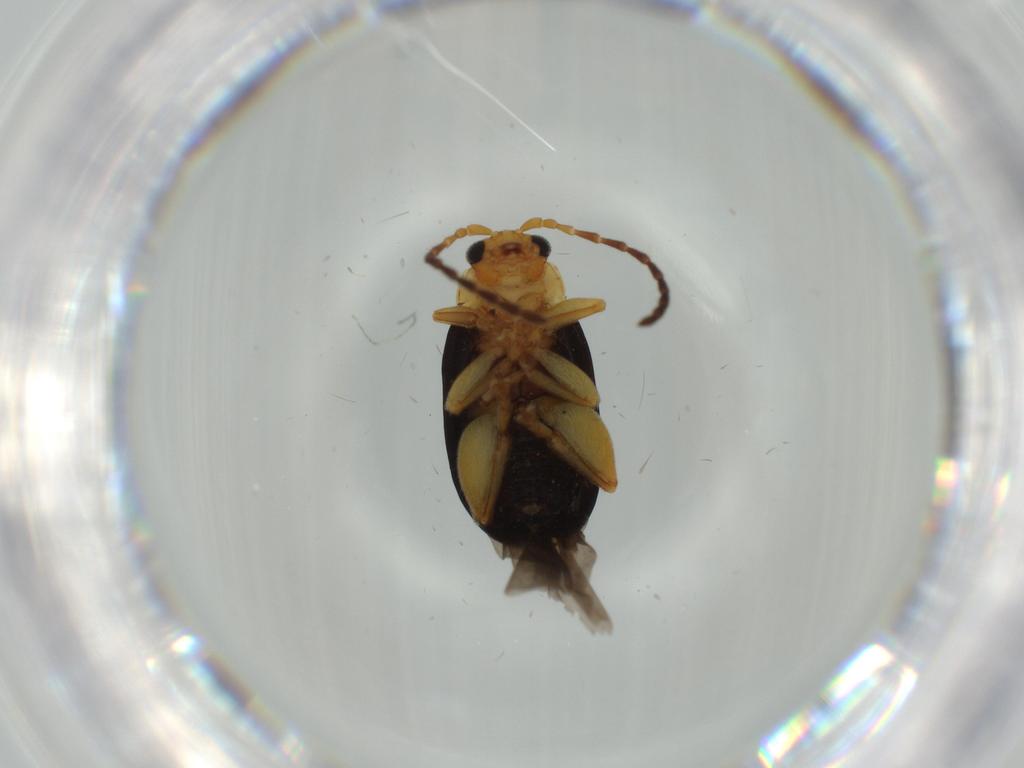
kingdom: Animalia
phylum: Arthropoda
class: Insecta
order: Coleoptera
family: Chrysomelidae
